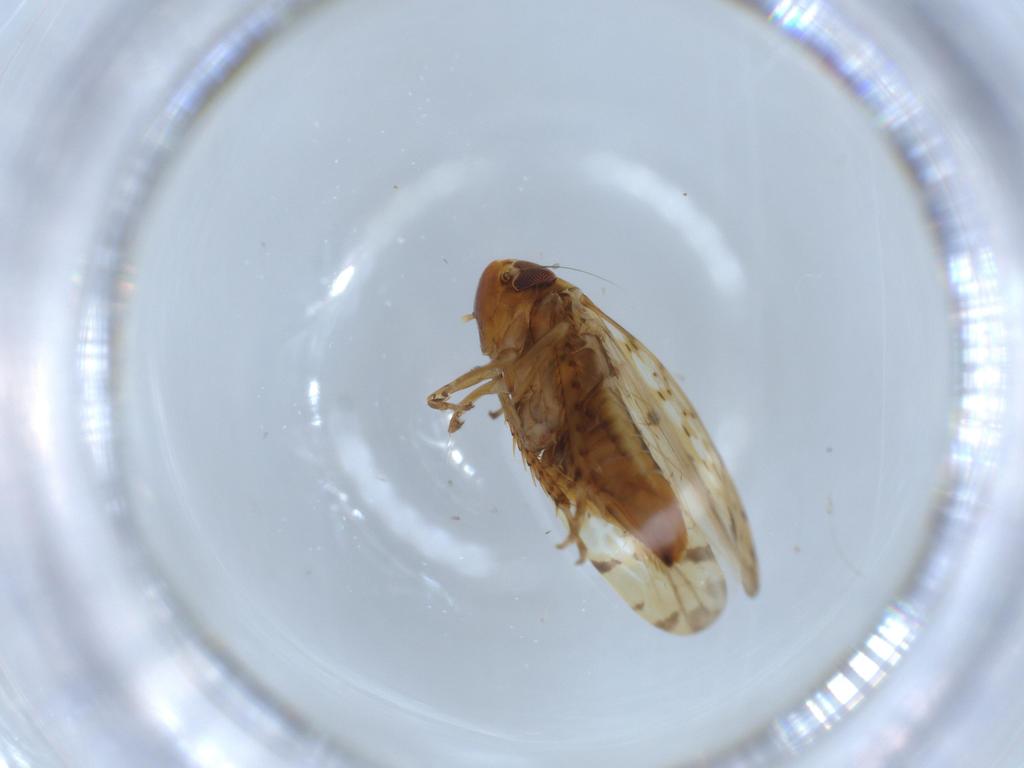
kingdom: Animalia
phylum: Arthropoda
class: Insecta
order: Hemiptera
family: Cicadellidae
